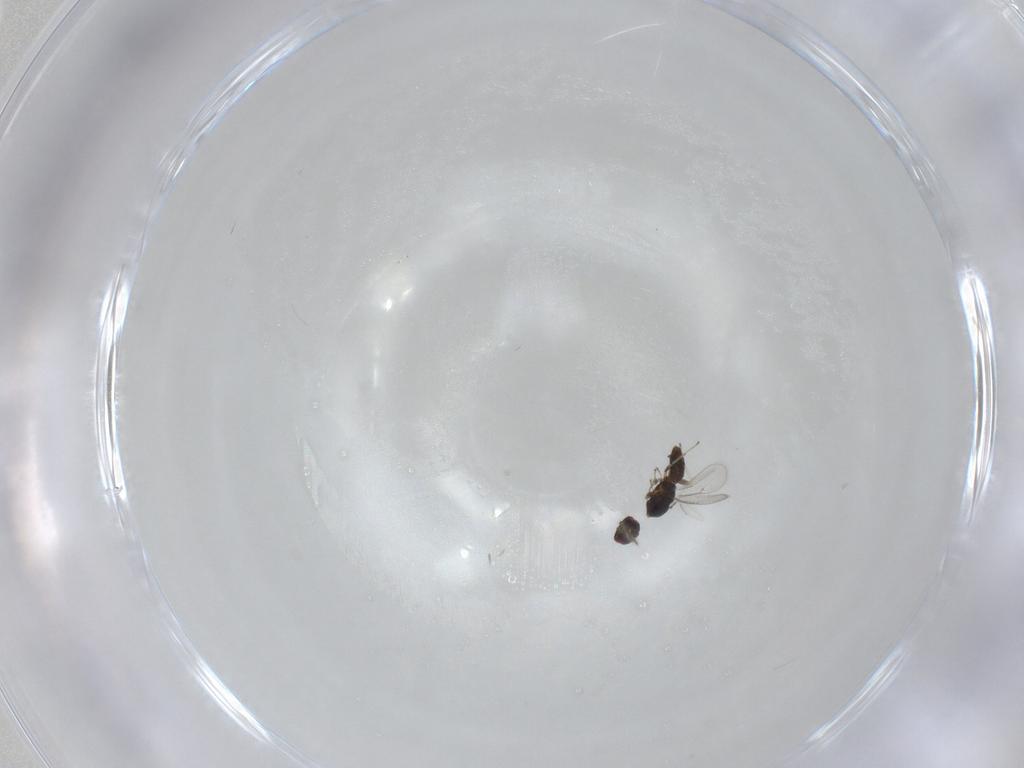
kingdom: Animalia
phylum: Arthropoda
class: Insecta
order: Hymenoptera
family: Eulophidae
